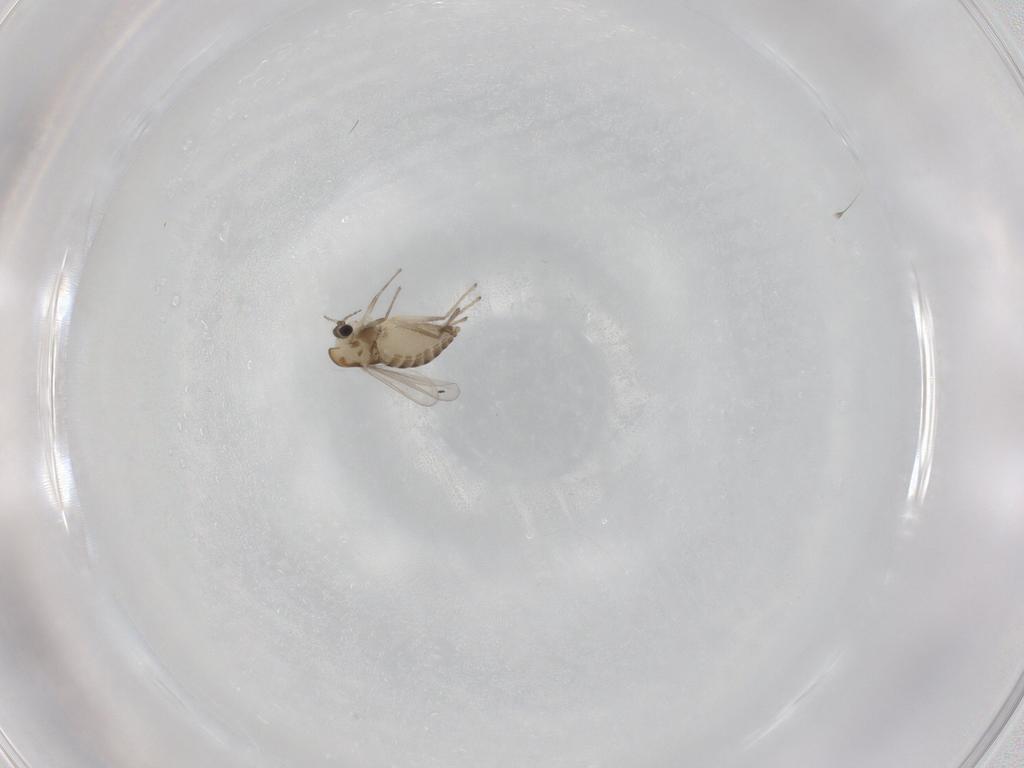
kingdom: Animalia
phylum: Arthropoda
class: Insecta
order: Diptera
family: Chironomidae
